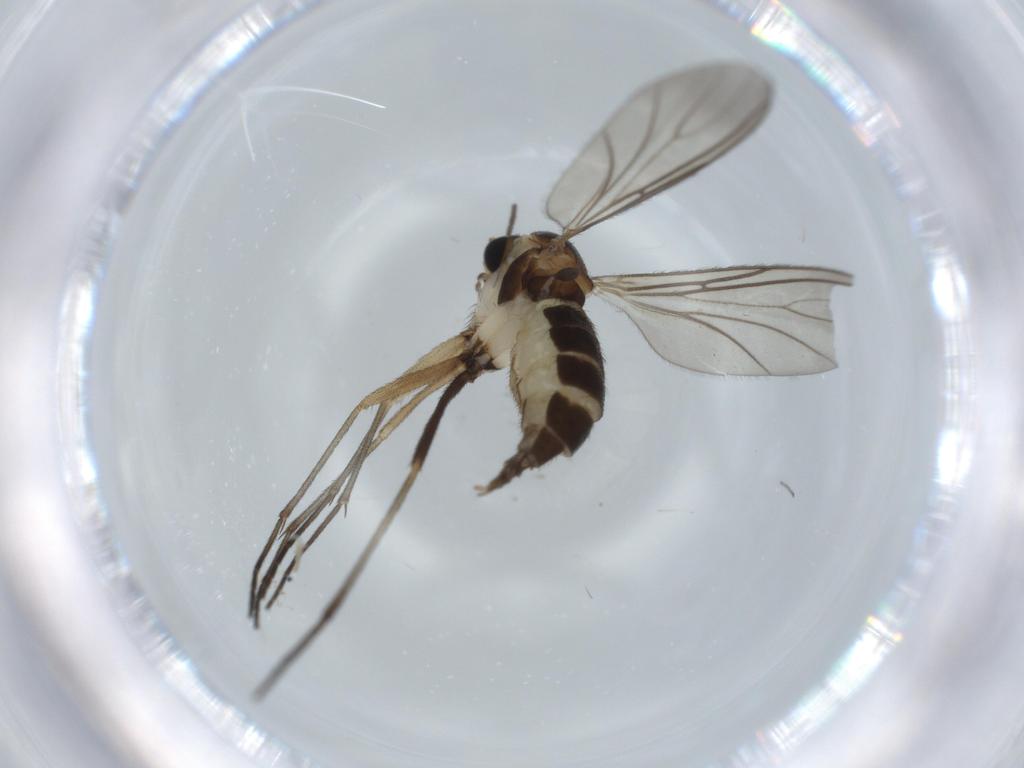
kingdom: Animalia
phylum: Arthropoda
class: Insecta
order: Diptera
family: Sciaridae
